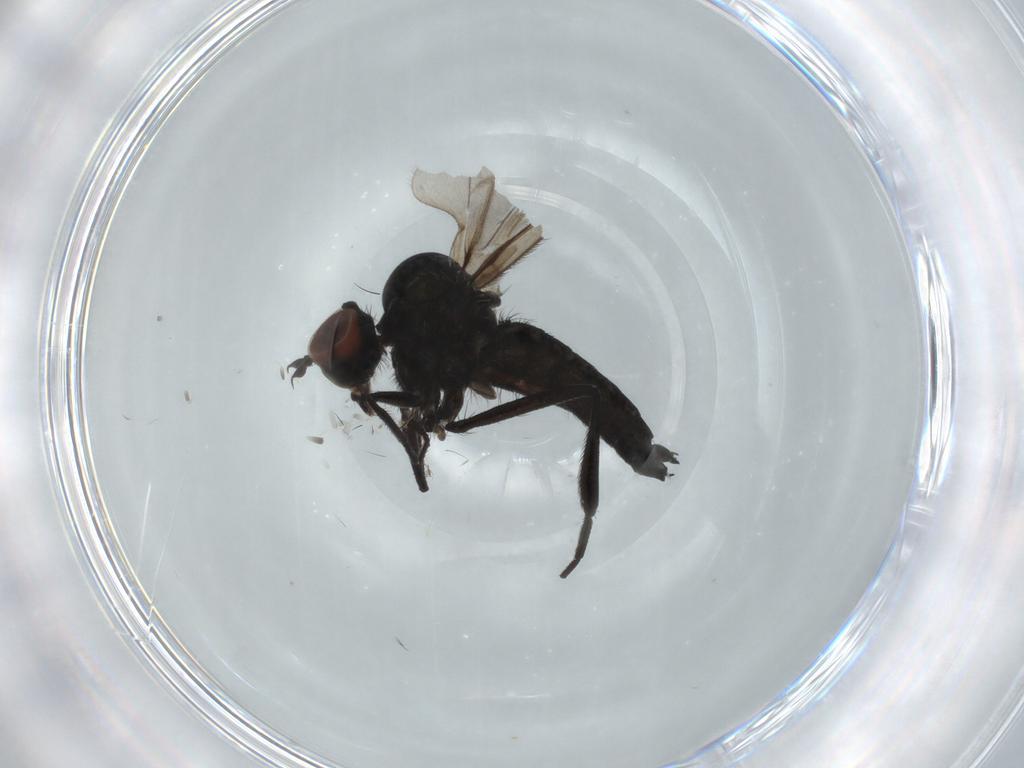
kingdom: Animalia
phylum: Arthropoda
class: Insecta
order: Diptera
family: Hybotidae
